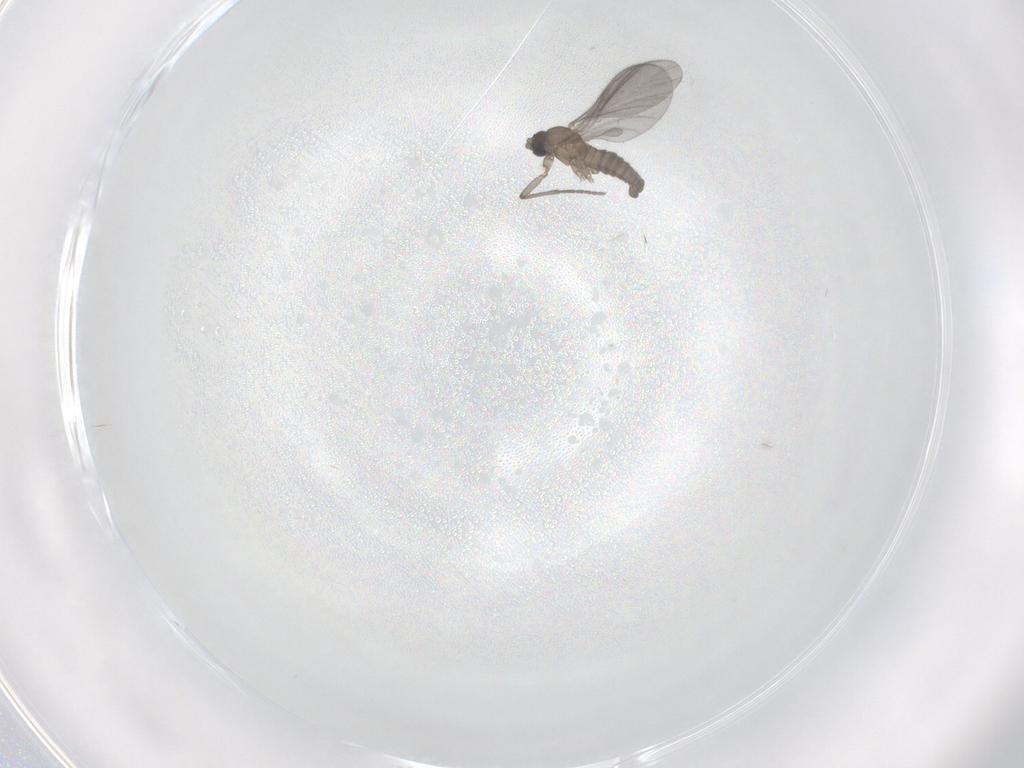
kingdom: Animalia
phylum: Arthropoda
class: Insecta
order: Diptera
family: Sciaridae
